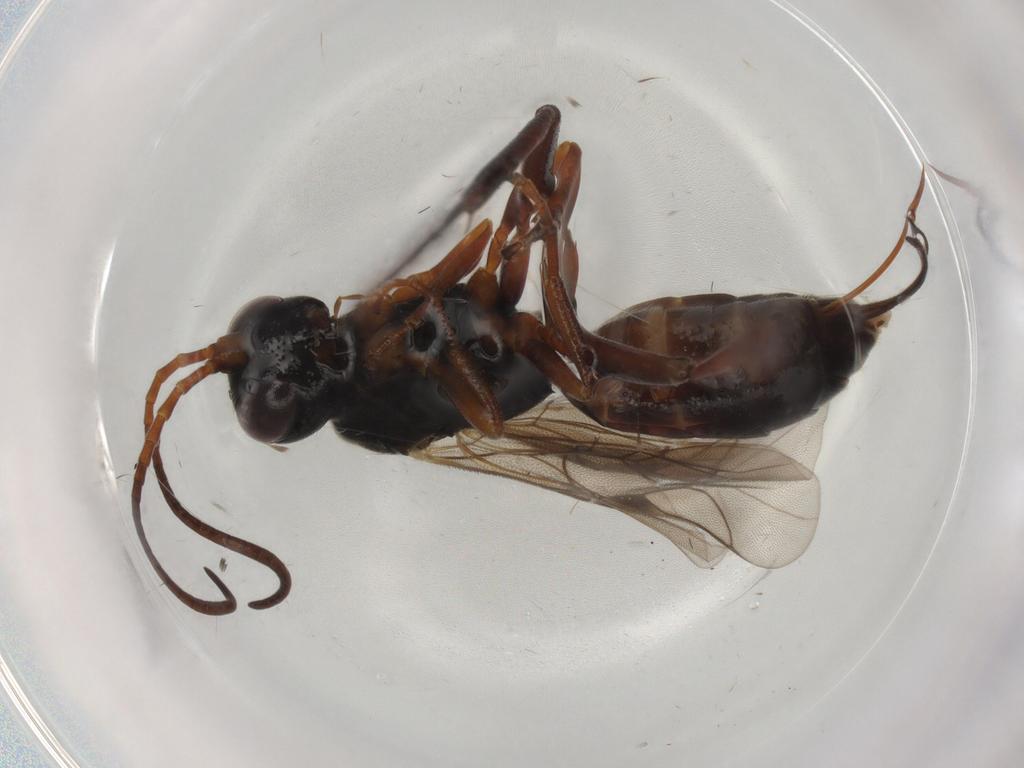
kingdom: Animalia
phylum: Arthropoda
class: Insecta
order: Hymenoptera
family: Ichneumonidae
